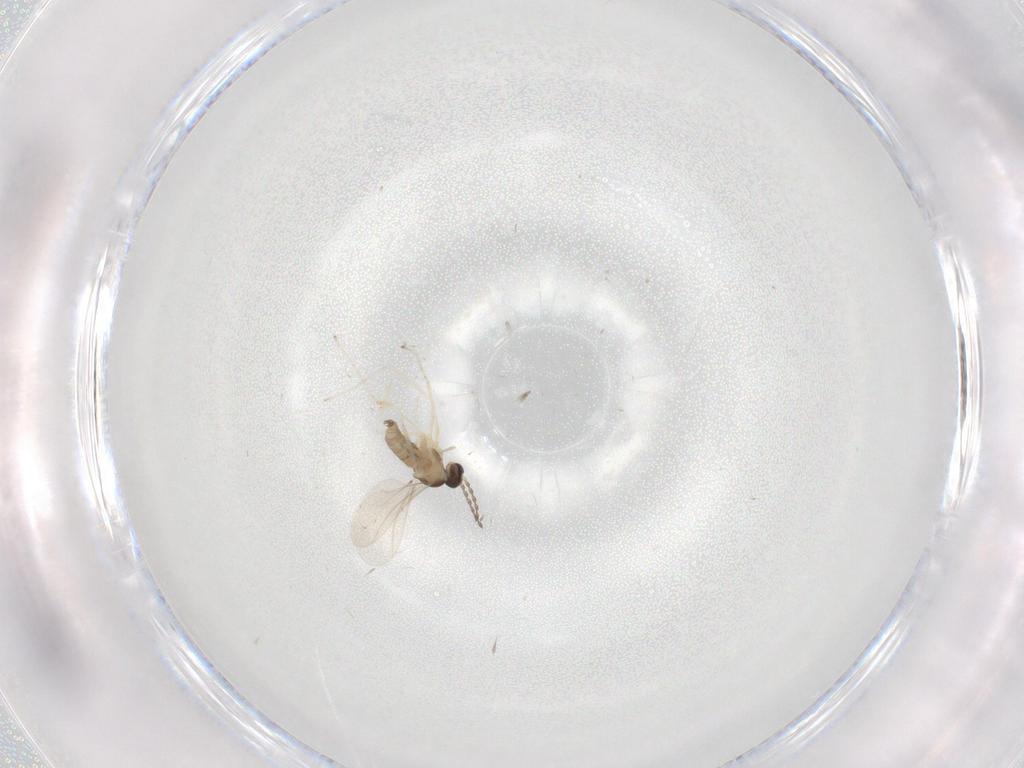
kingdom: Animalia
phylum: Arthropoda
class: Insecta
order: Diptera
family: Cecidomyiidae
